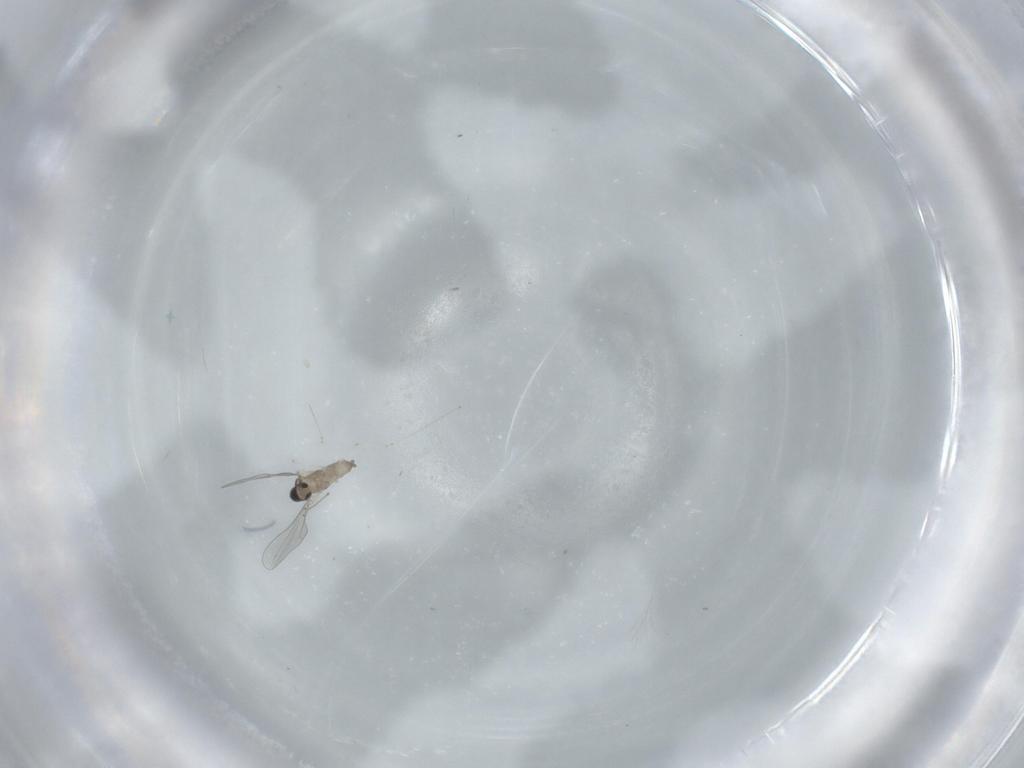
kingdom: Animalia
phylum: Arthropoda
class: Insecta
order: Diptera
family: Cecidomyiidae
